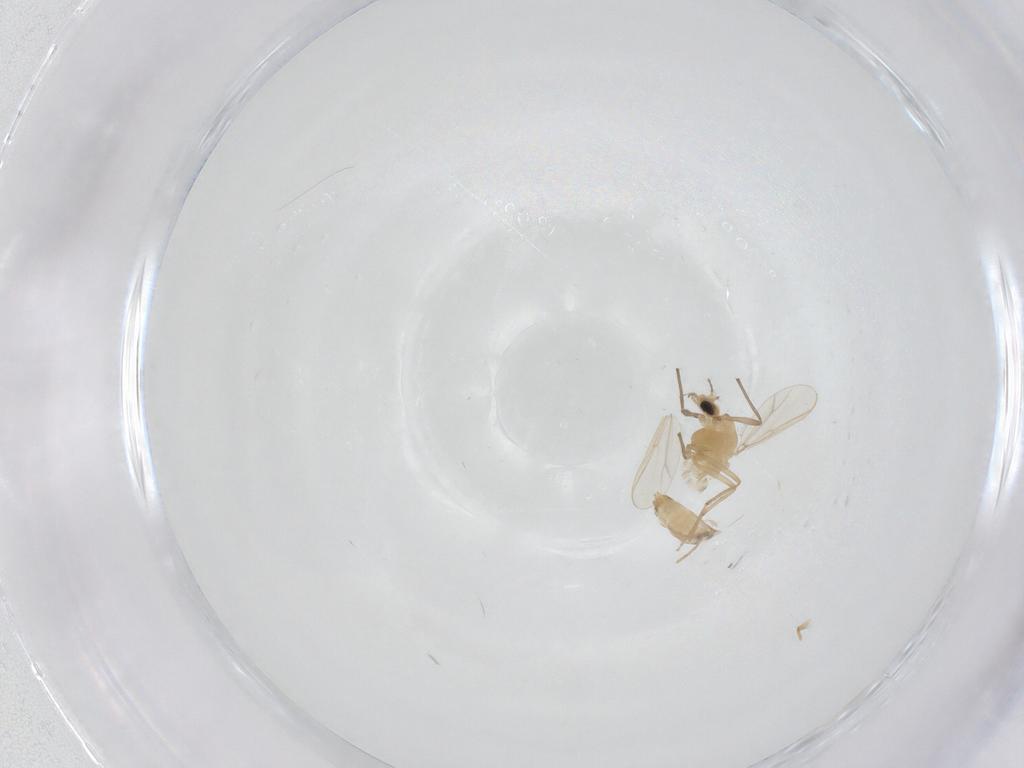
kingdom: Animalia
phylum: Arthropoda
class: Insecta
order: Diptera
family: Chironomidae
